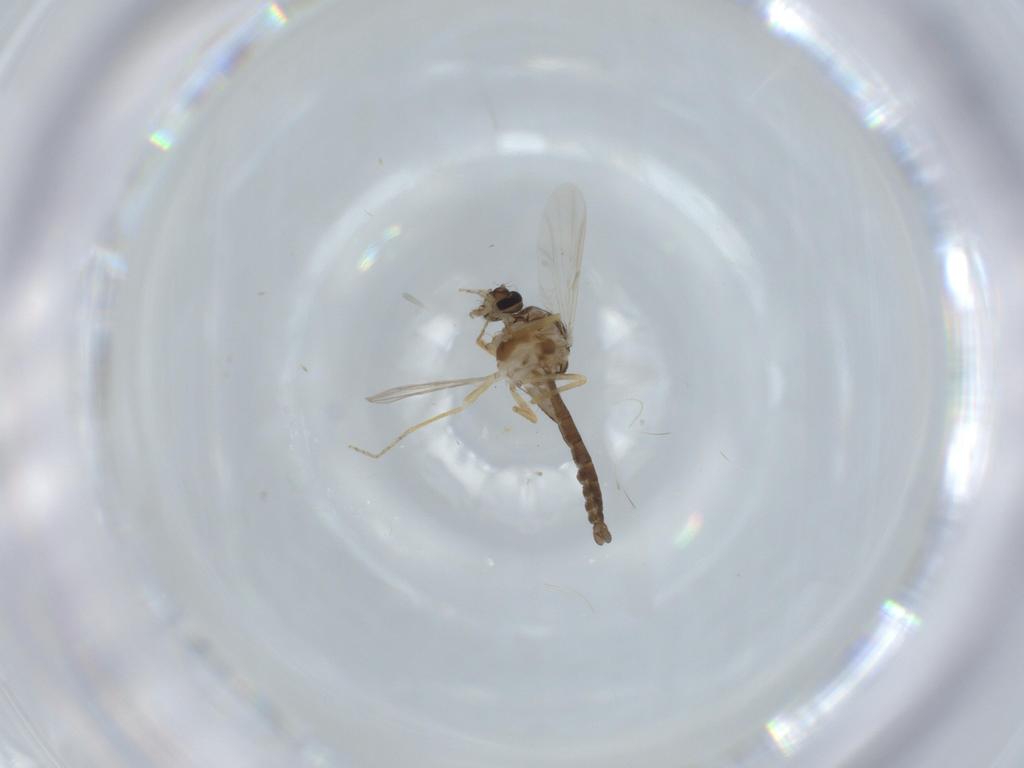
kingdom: Animalia
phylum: Arthropoda
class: Insecta
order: Diptera
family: Ceratopogonidae
